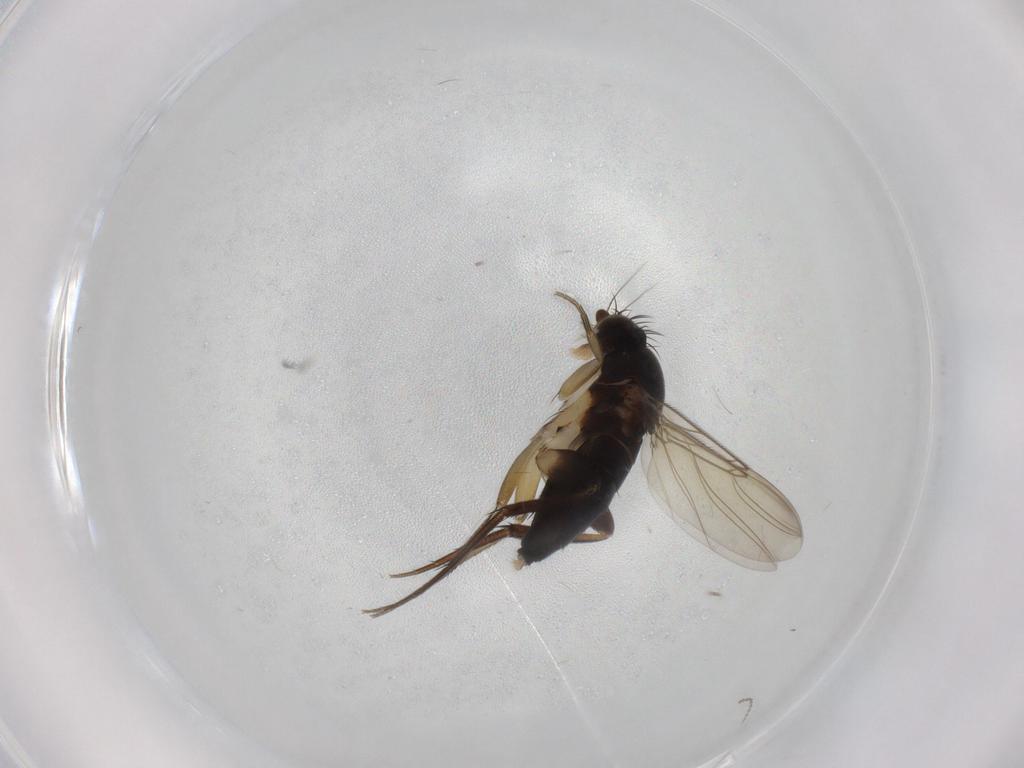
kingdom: Animalia
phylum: Arthropoda
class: Insecta
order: Diptera
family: Phoridae
